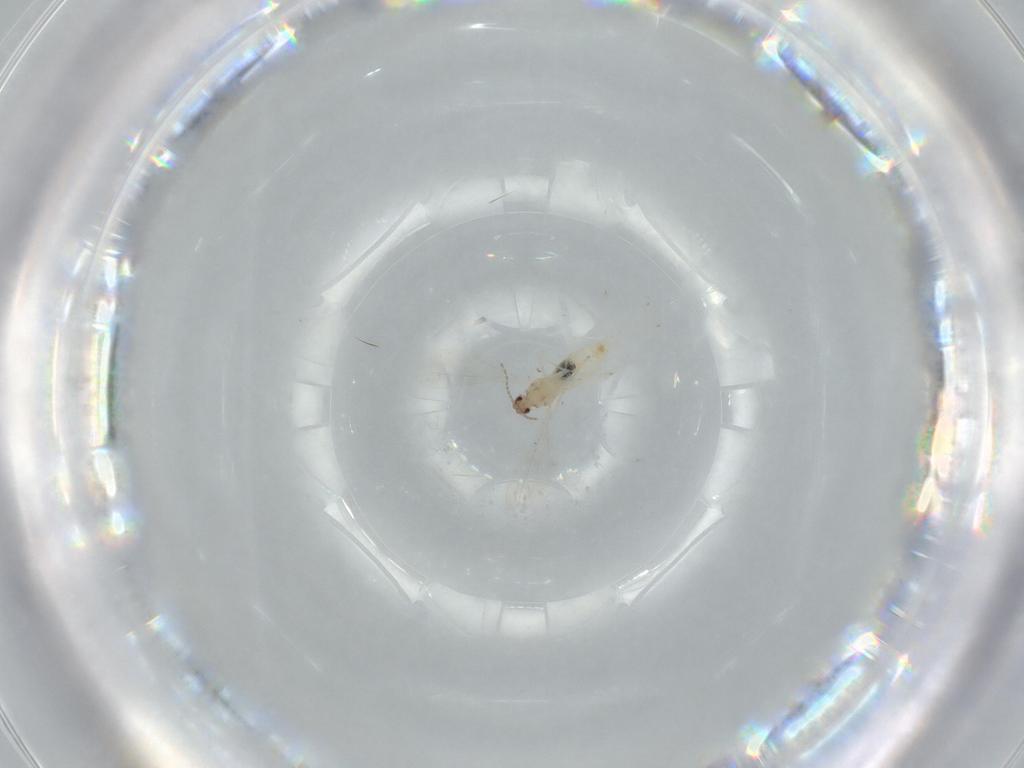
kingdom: Animalia
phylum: Arthropoda
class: Insecta
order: Diptera
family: Cecidomyiidae
